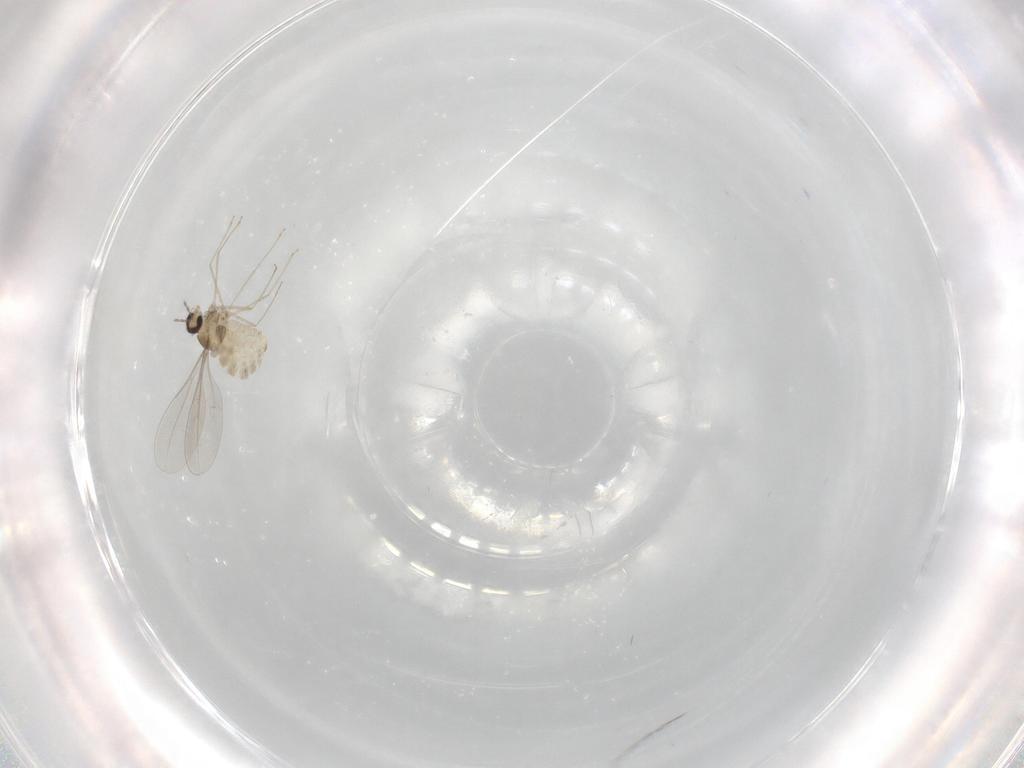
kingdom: Animalia
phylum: Arthropoda
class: Insecta
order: Diptera
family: Cecidomyiidae
